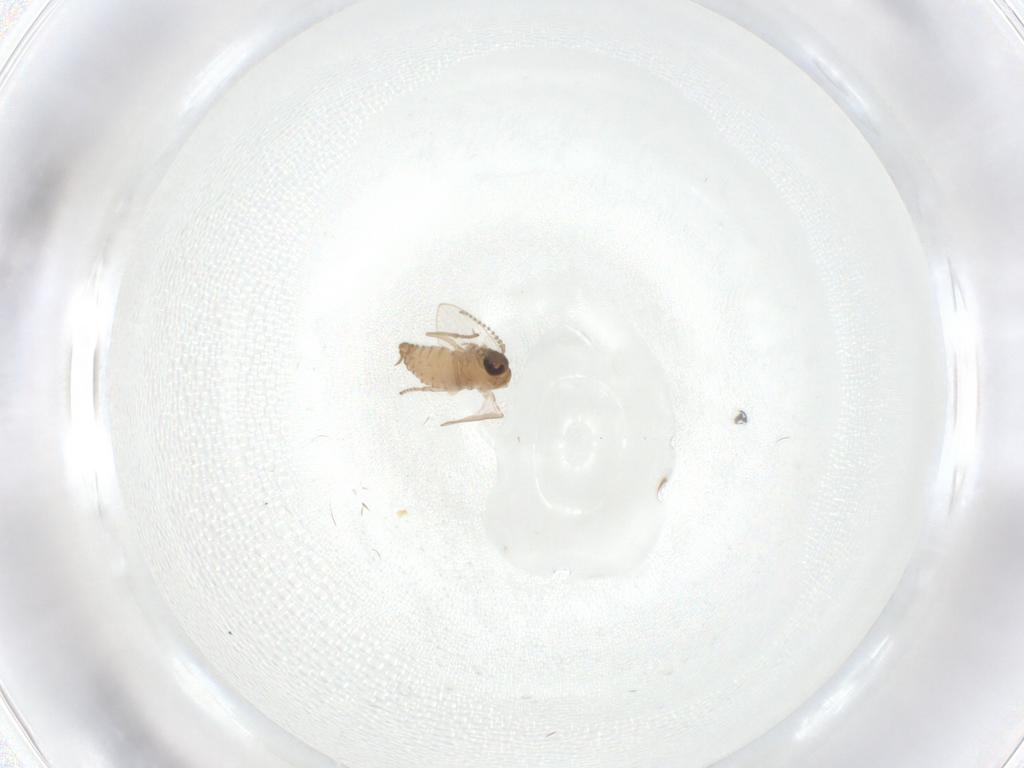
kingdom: Animalia
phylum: Arthropoda
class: Insecta
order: Diptera
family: Psychodidae
